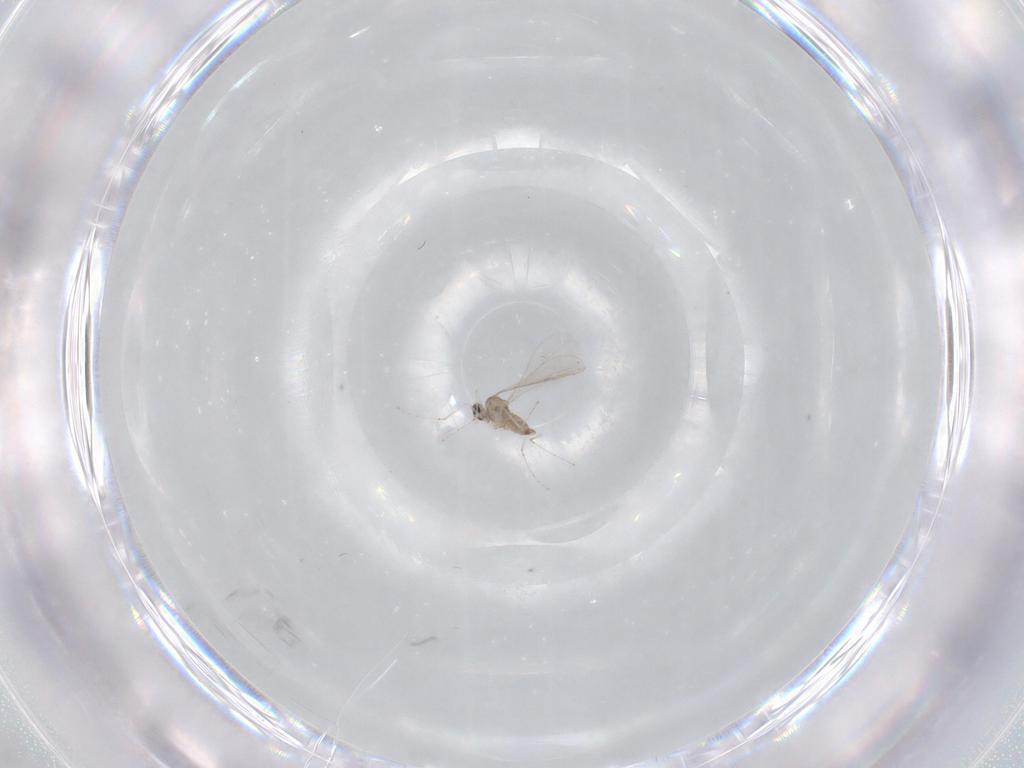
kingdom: Animalia
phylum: Arthropoda
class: Insecta
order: Diptera
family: Cecidomyiidae
